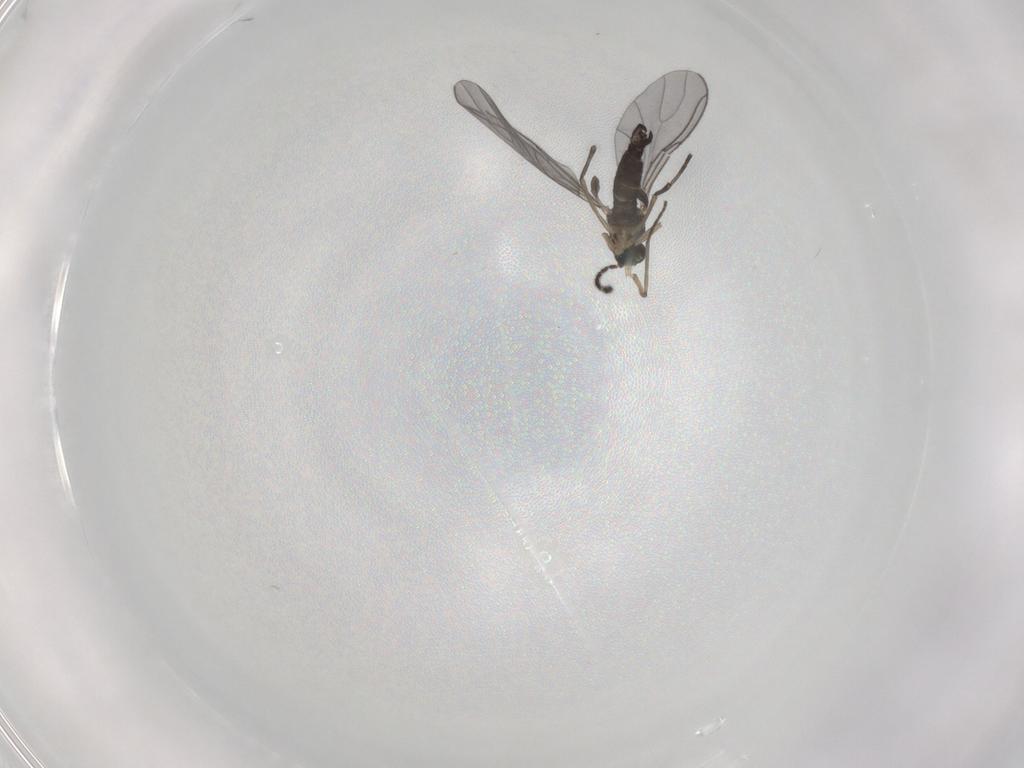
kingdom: Animalia
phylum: Arthropoda
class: Insecta
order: Diptera
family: Sciaridae
